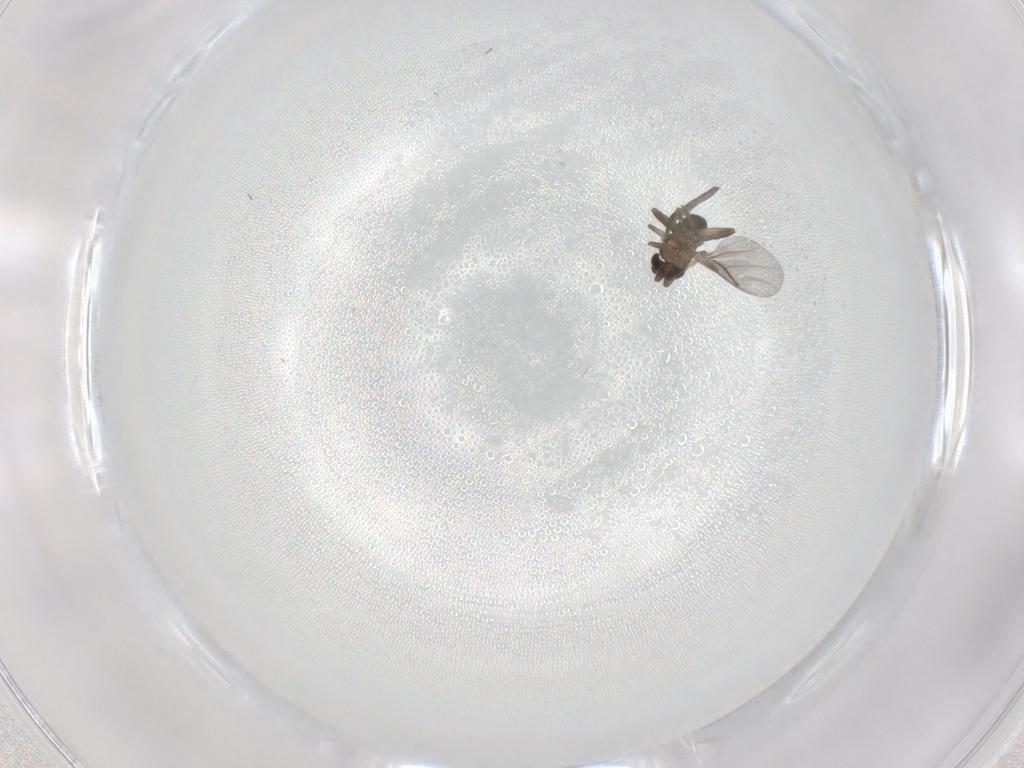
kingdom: Animalia
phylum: Arthropoda
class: Insecta
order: Diptera
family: Phoridae
